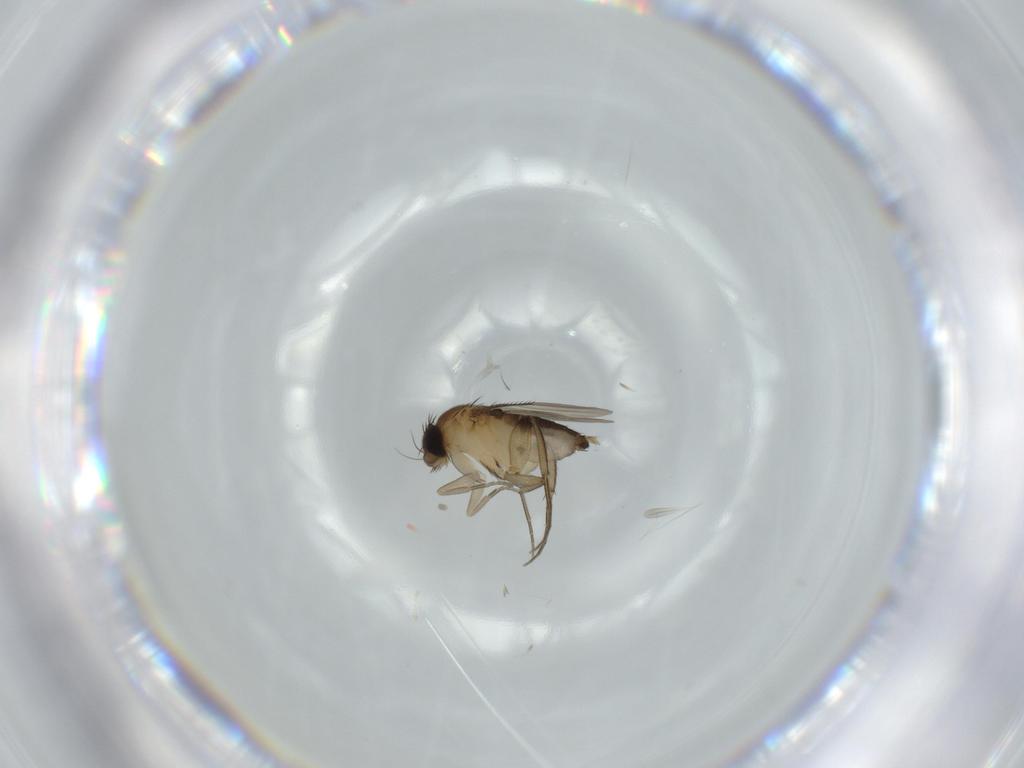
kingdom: Animalia
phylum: Arthropoda
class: Insecta
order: Diptera
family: Phoridae
